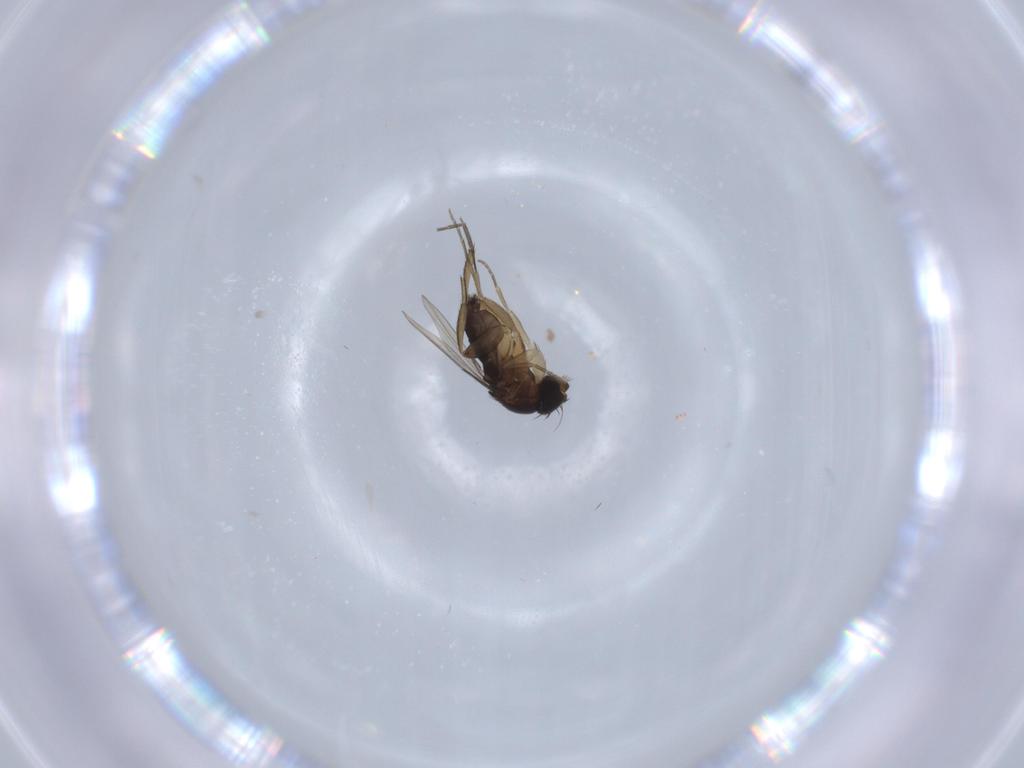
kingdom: Animalia
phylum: Arthropoda
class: Insecta
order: Diptera
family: Phoridae
